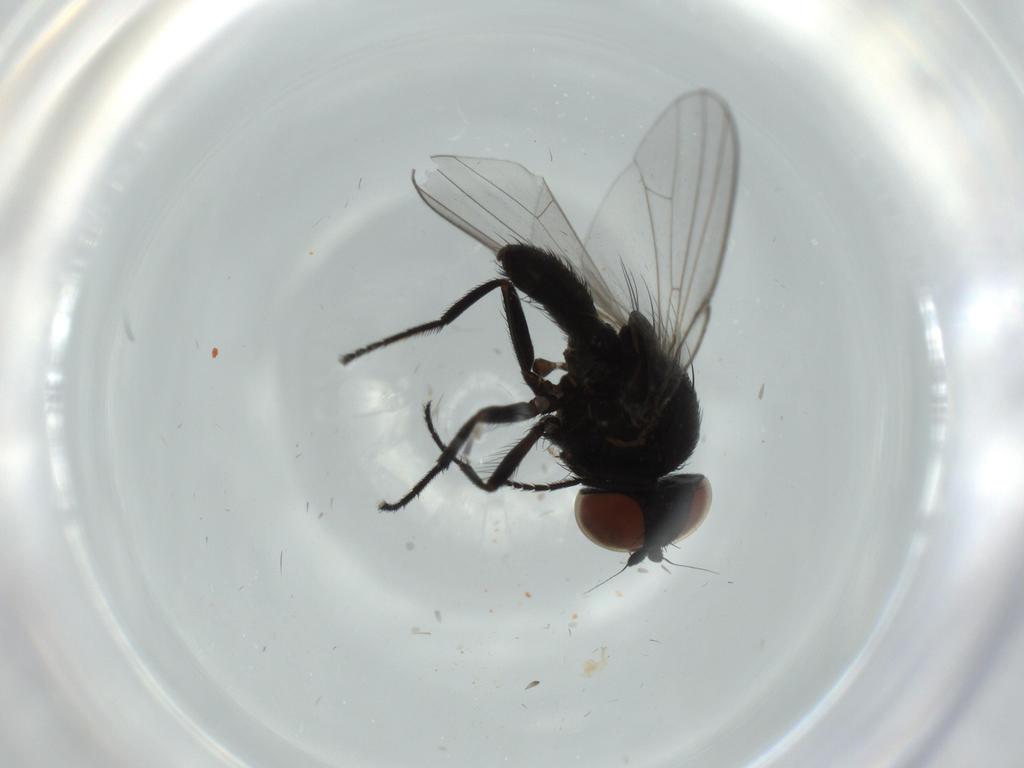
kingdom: Animalia
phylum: Arthropoda
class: Insecta
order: Diptera
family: Milichiidae
